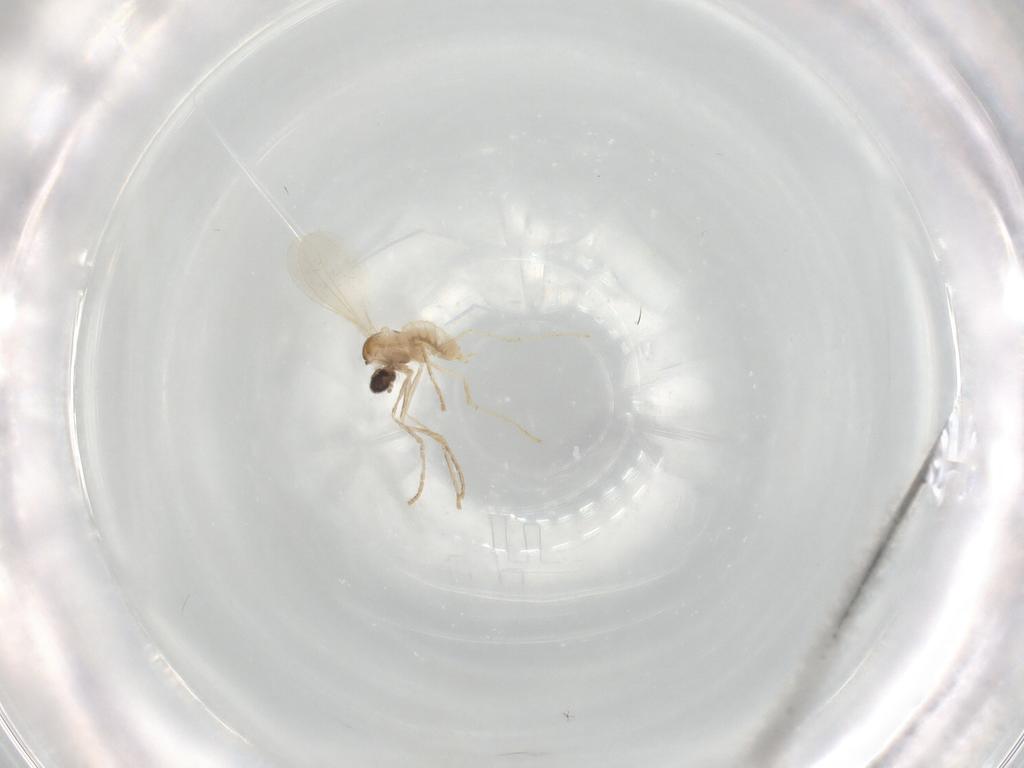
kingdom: Animalia
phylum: Arthropoda
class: Insecta
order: Diptera
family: Limoniidae
